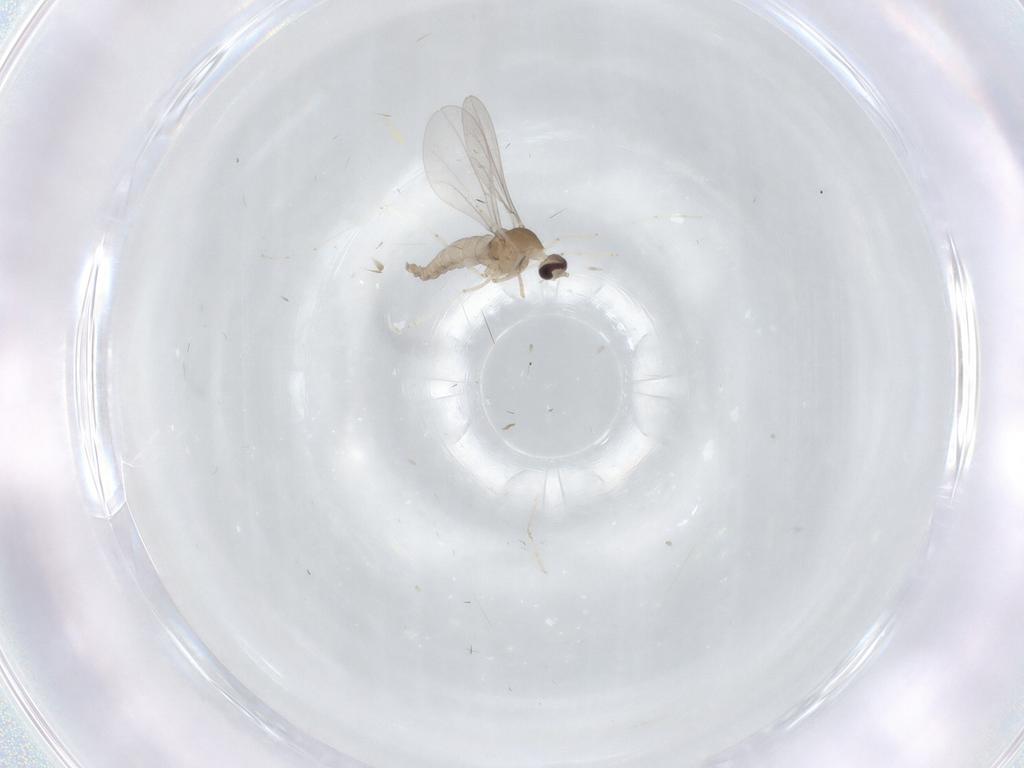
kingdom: Animalia
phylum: Arthropoda
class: Insecta
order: Diptera
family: Cecidomyiidae
